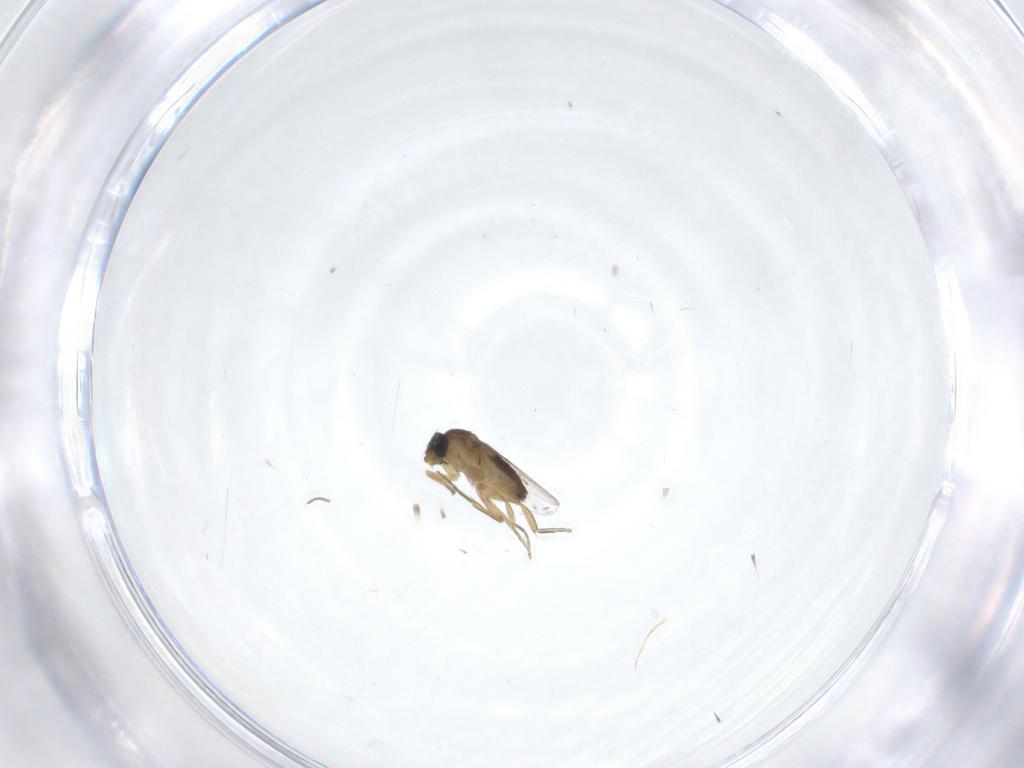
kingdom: Animalia
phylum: Arthropoda
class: Insecta
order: Diptera
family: Psychodidae
